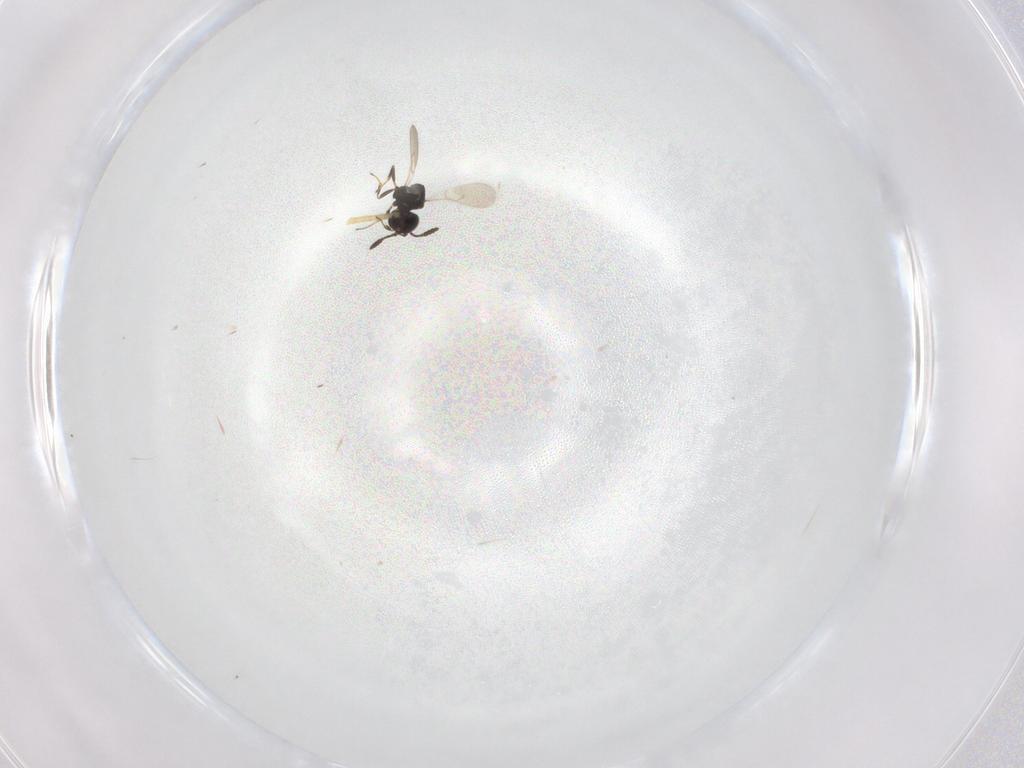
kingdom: Animalia
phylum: Arthropoda
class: Insecta
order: Hymenoptera
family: Scelionidae
